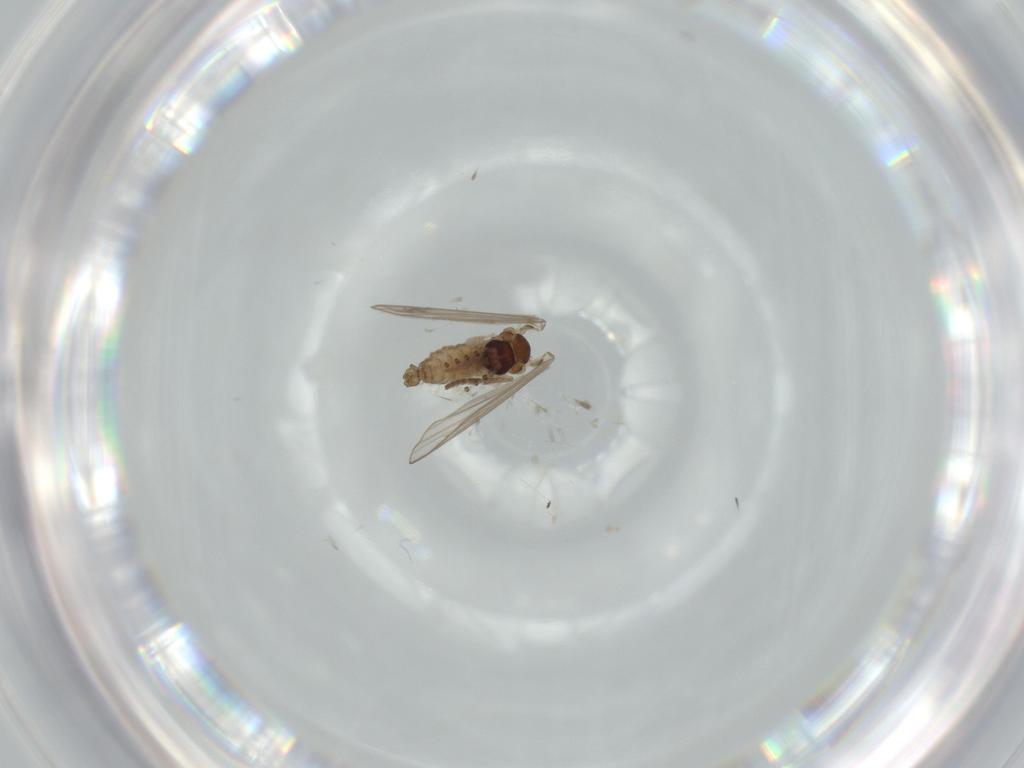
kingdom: Animalia
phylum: Arthropoda
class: Insecta
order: Diptera
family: Psychodidae
